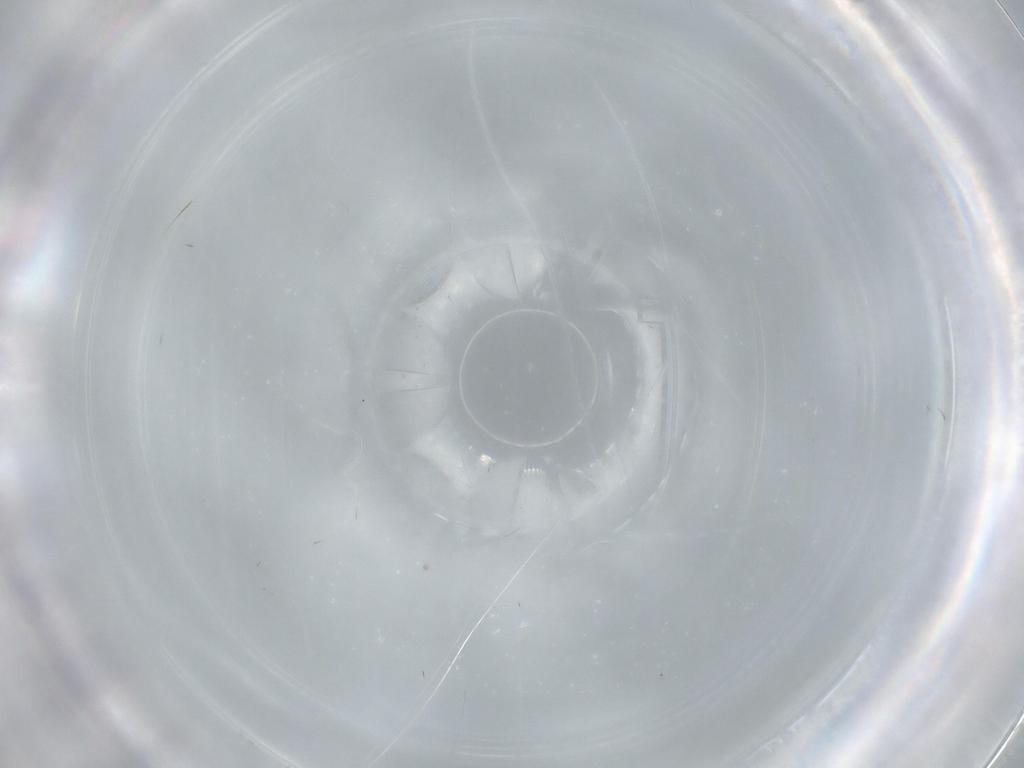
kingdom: Animalia
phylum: Arthropoda
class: Insecta
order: Dermaptera
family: Forficulidae
